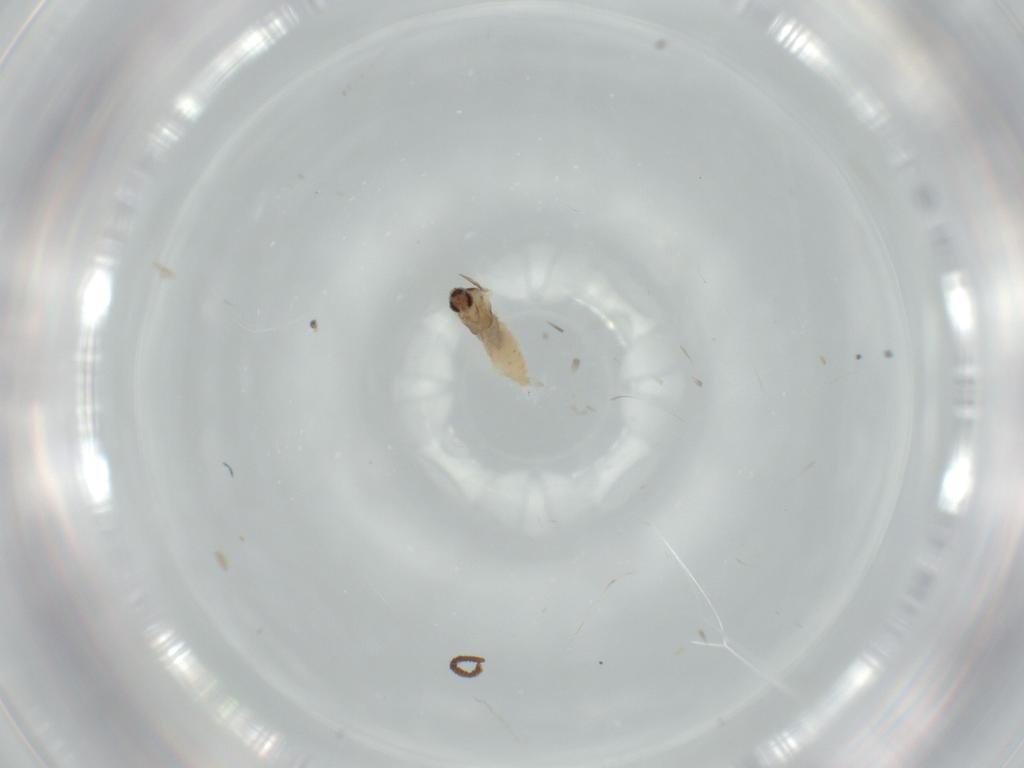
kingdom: Animalia
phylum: Arthropoda
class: Insecta
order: Diptera
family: Cecidomyiidae
